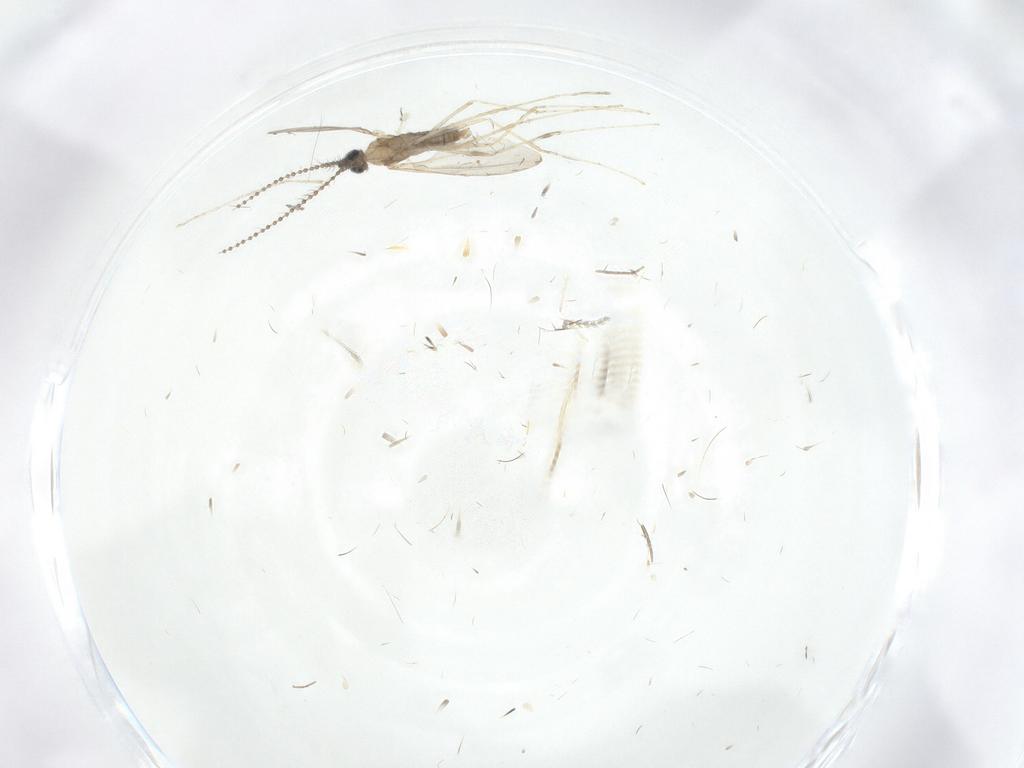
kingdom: Animalia
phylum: Arthropoda
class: Insecta
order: Diptera
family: Cecidomyiidae
